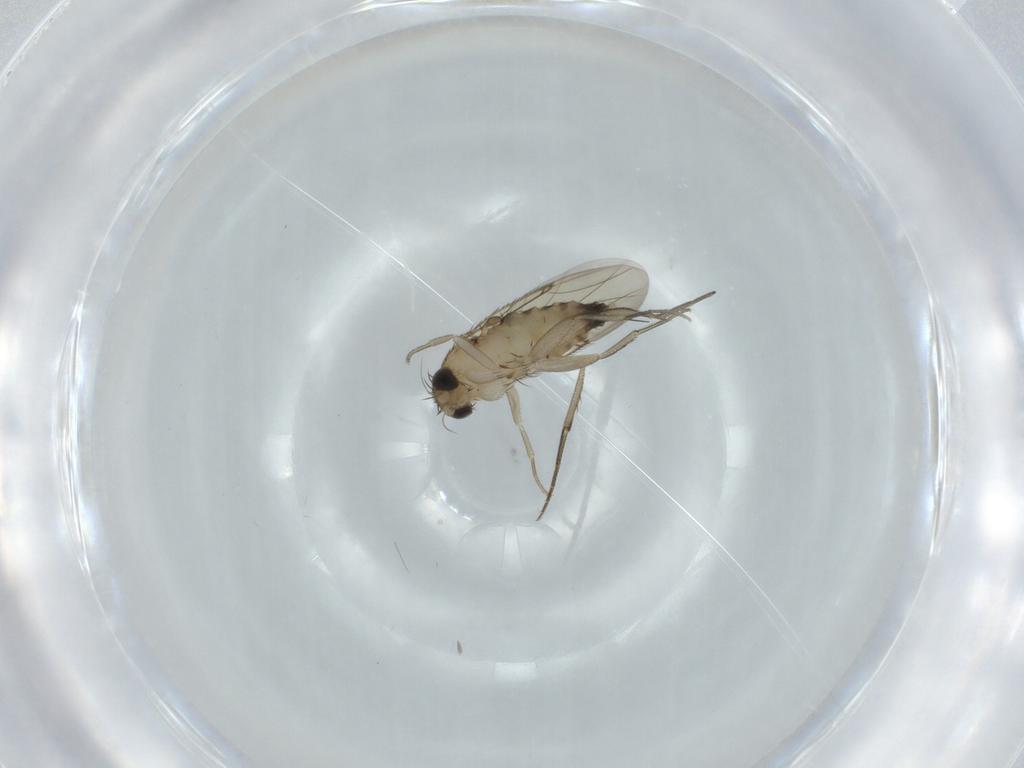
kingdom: Animalia
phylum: Arthropoda
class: Insecta
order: Diptera
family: Phoridae
